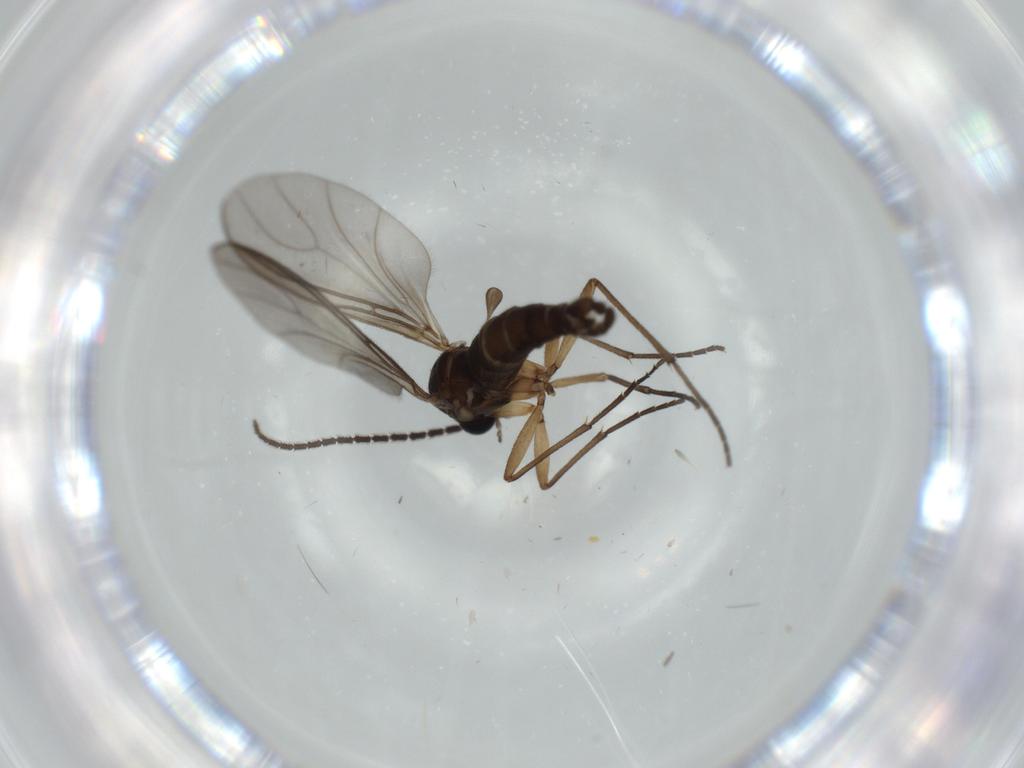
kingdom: Animalia
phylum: Arthropoda
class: Insecta
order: Diptera
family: Sciaridae
